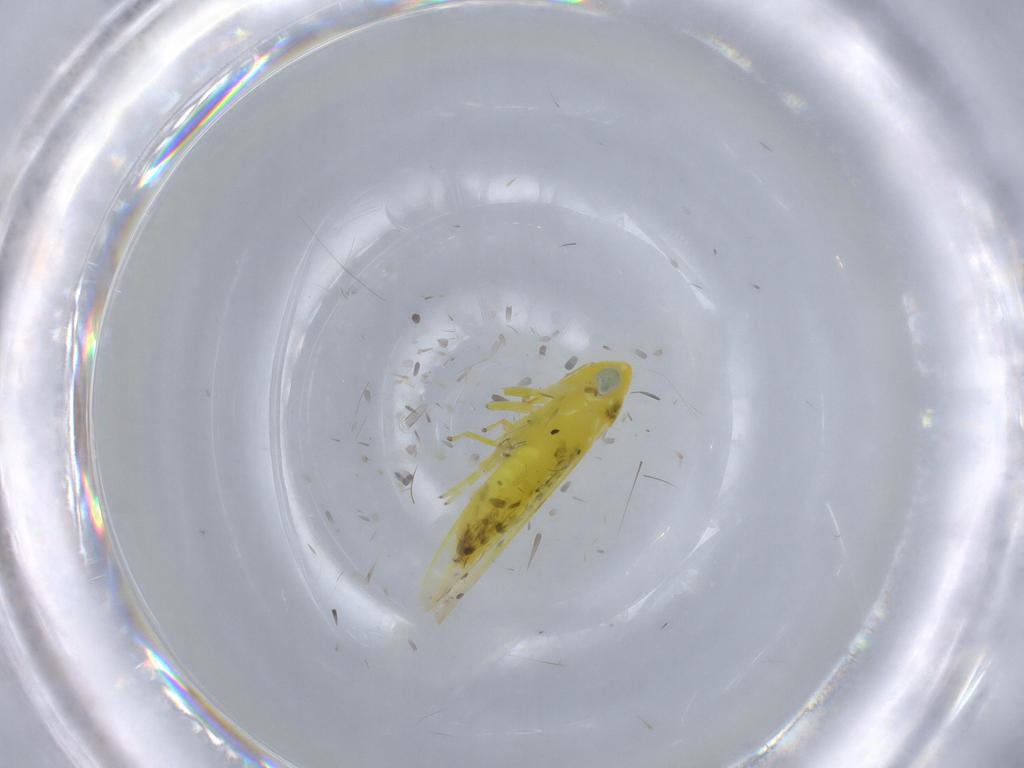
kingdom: Animalia
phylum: Arthropoda
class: Insecta
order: Hemiptera
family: Cicadellidae
